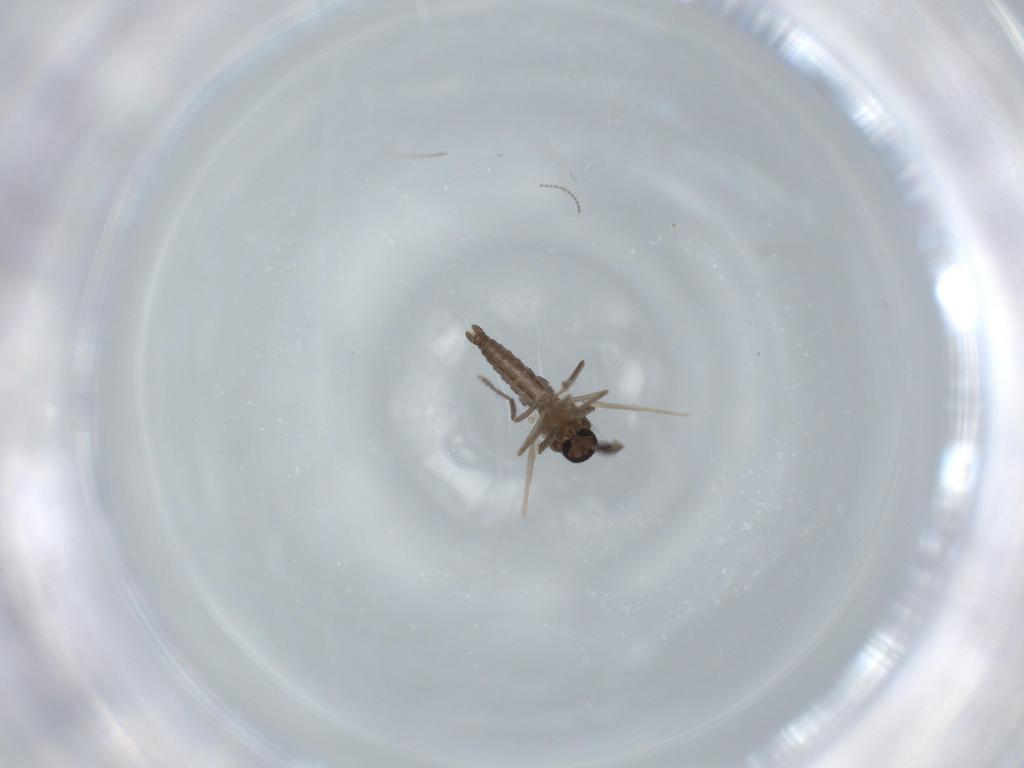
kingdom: Animalia
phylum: Arthropoda
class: Insecta
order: Diptera
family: Ceratopogonidae
